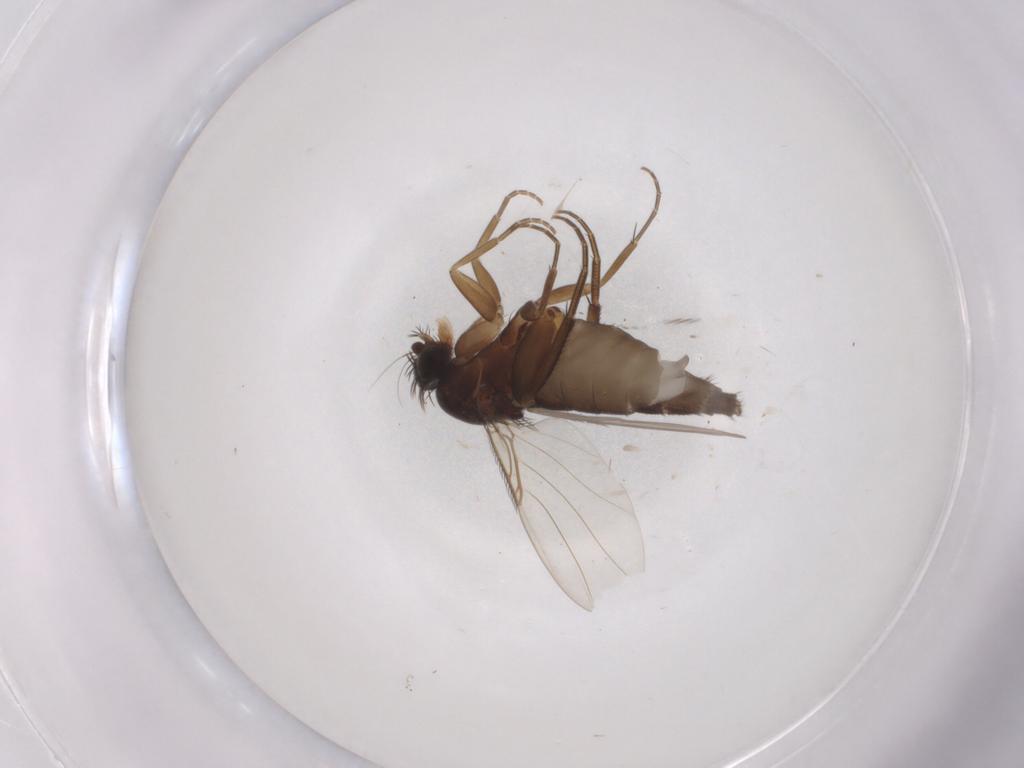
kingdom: Animalia
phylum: Arthropoda
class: Insecta
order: Diptera
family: Phoridae
